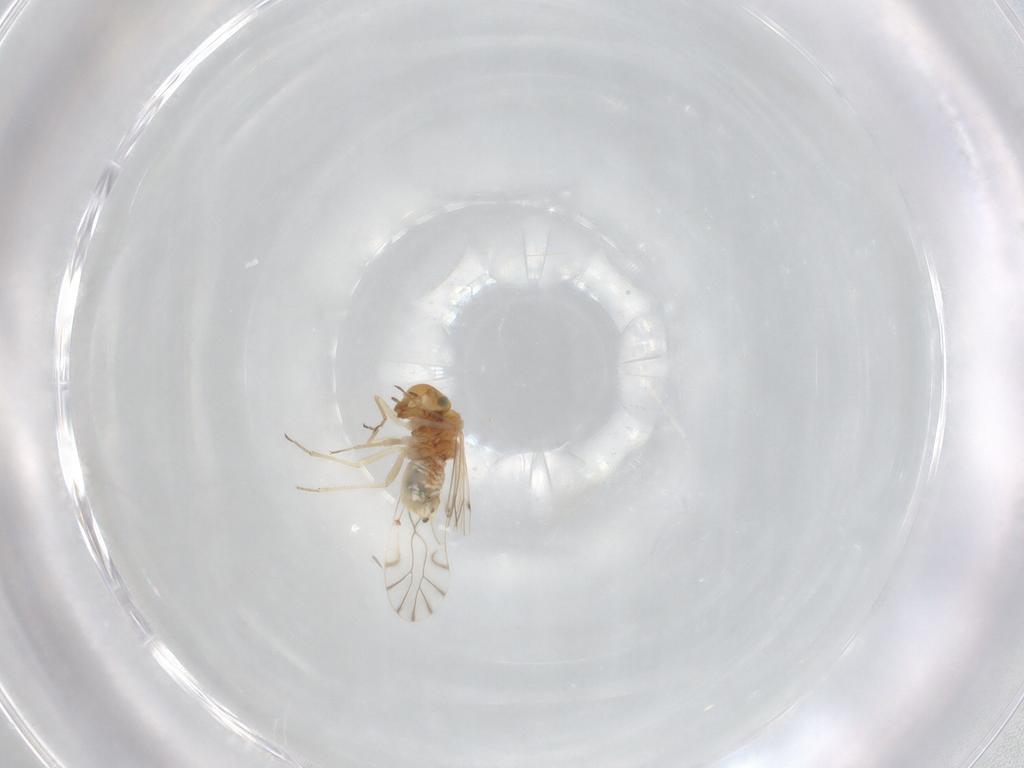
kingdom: Animalia
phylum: Arthropoda
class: Insecta
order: Psocodea
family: Lachesillidae
